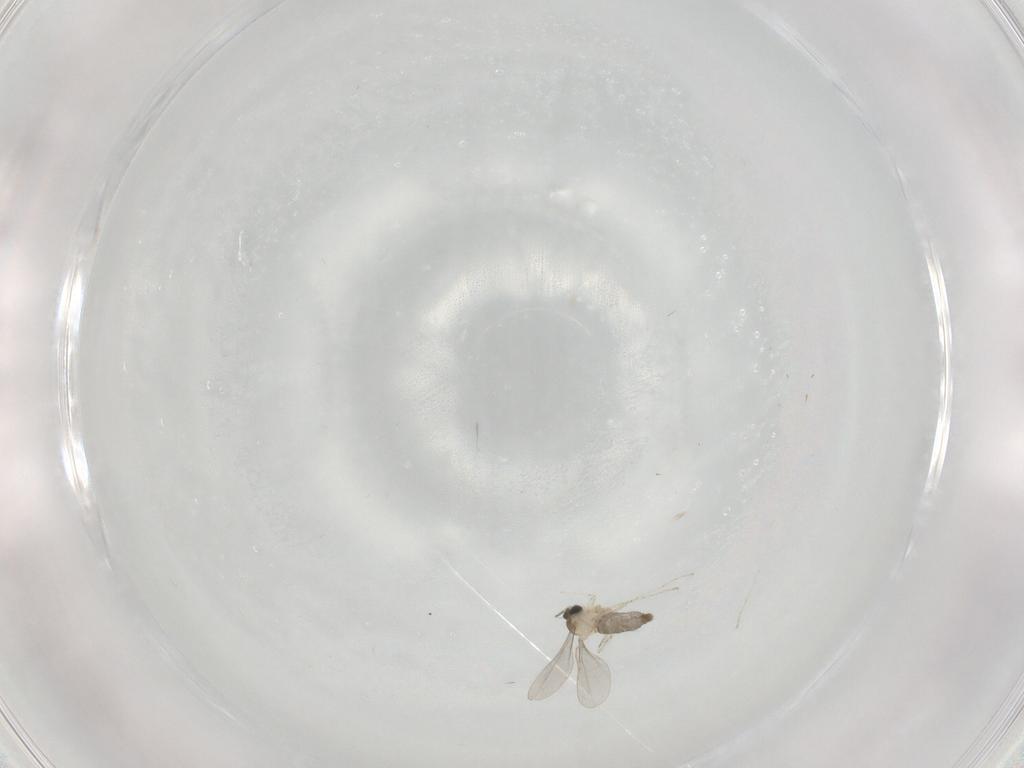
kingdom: Animalia
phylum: Arthropoda
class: Insecta
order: Diptera
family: Cecidomyiidae
